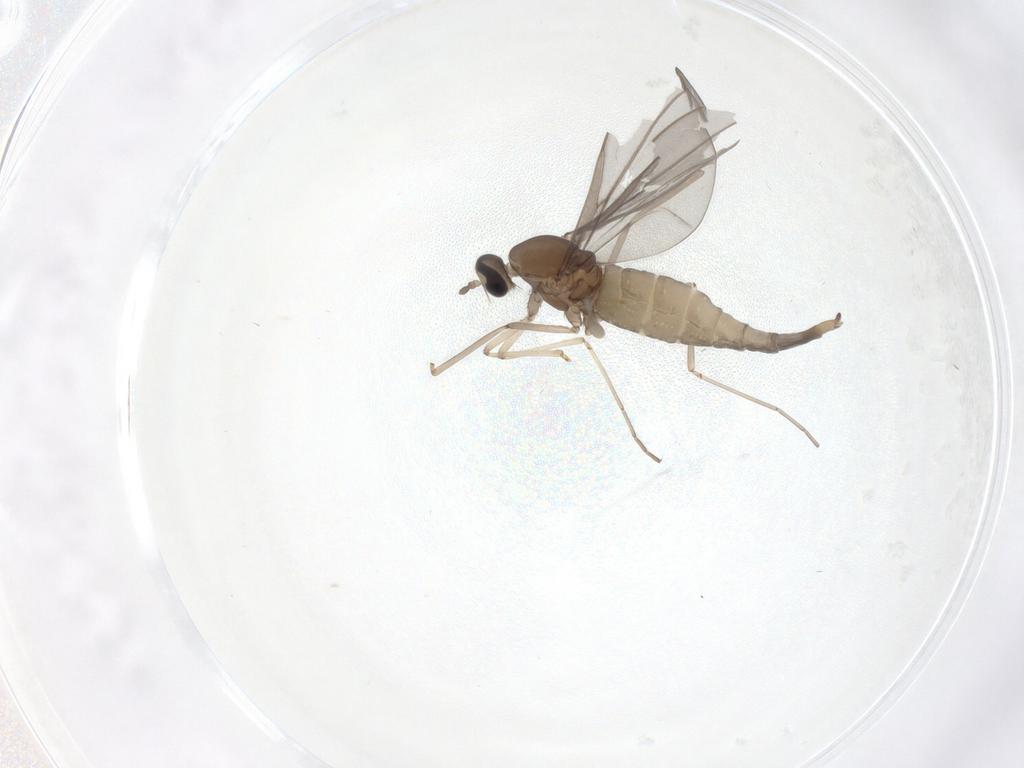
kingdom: Animalia
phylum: Arthropoda
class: Insecta
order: Diptera
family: Cecidomyiidae
